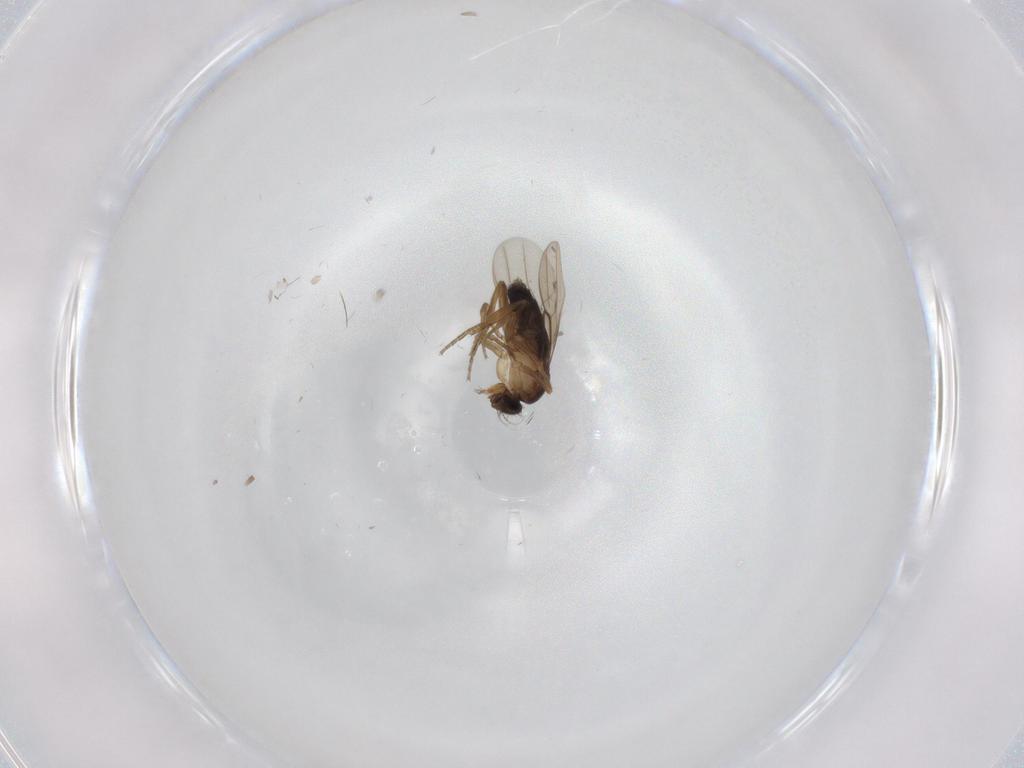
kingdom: Animalia
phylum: Arthropoda
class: Insecta
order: Diptera
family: Phoridae
